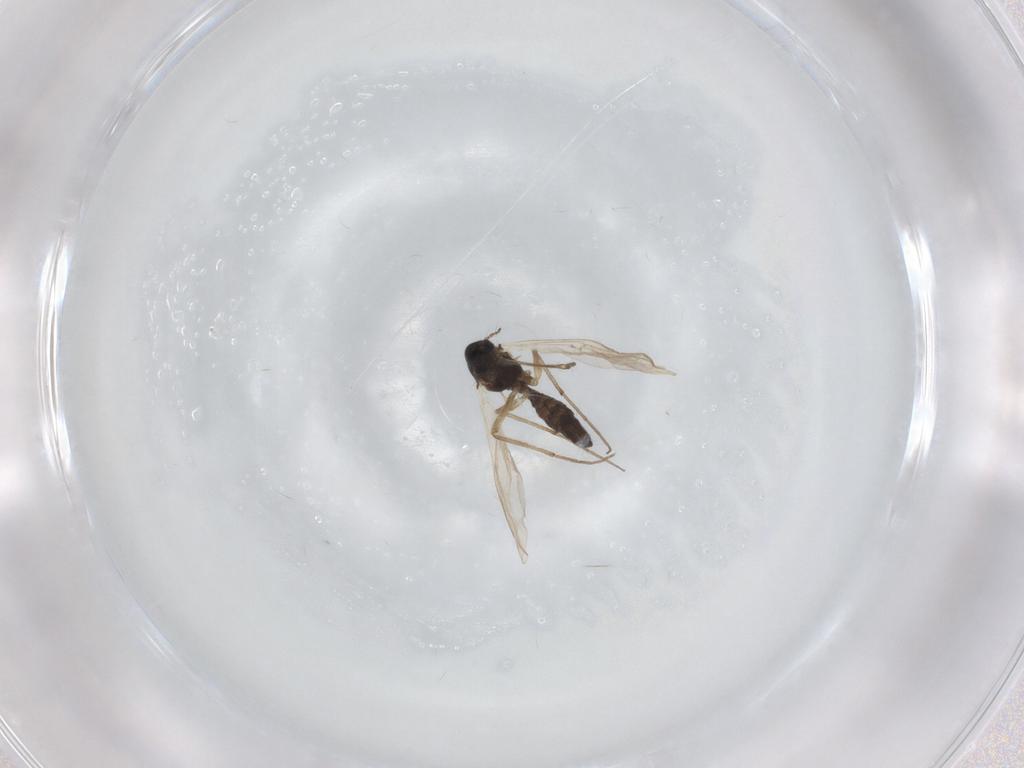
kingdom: Animalia
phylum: Arthropoda
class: Insecta
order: Diptera
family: Chironomidae
